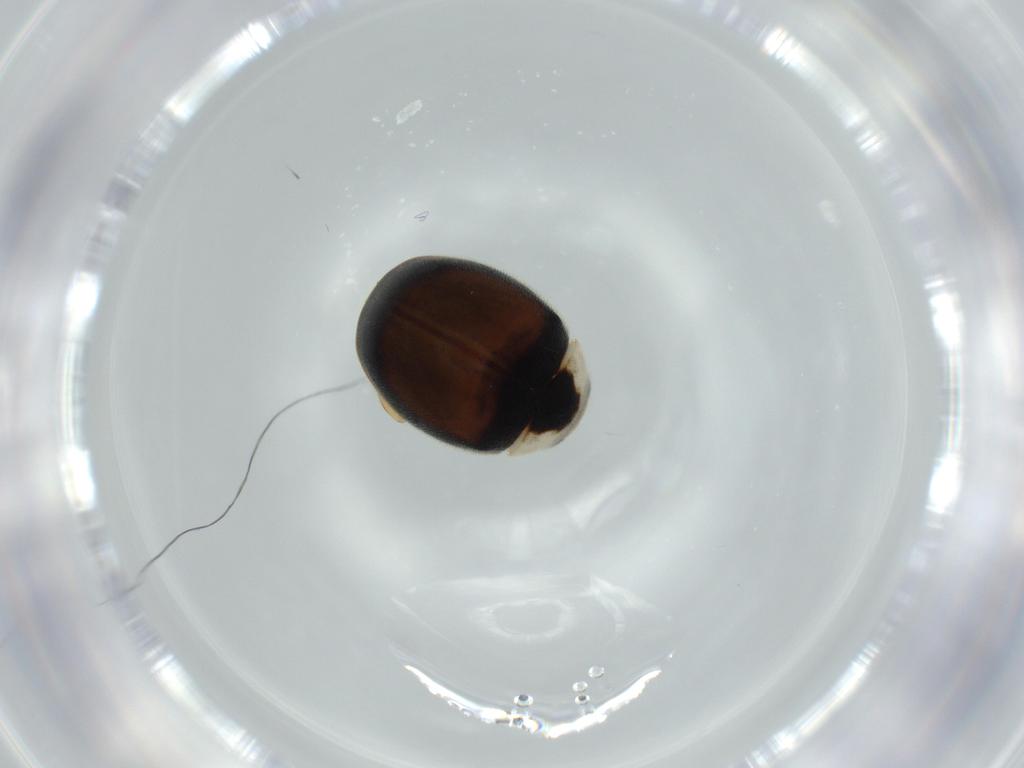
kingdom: Animalia
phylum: Arthropoda
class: Insecta
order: Coleoptera
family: Coccinellidae
